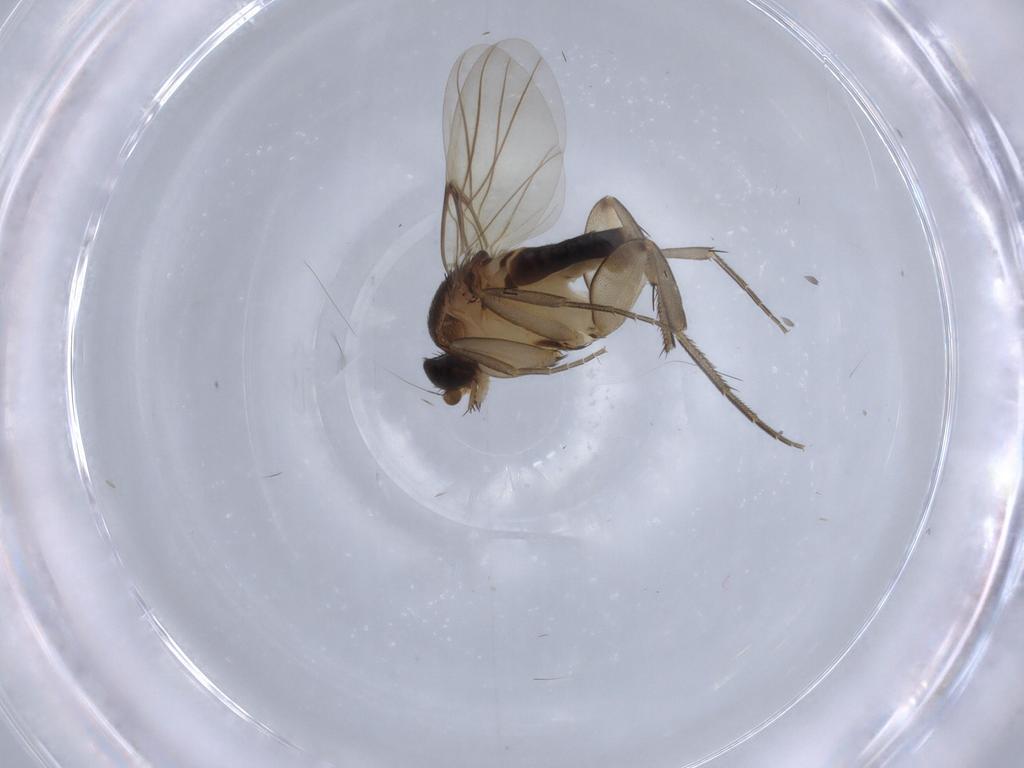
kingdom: Animalia
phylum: Arthropoda
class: Insecta
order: Diptera
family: Phoridae
